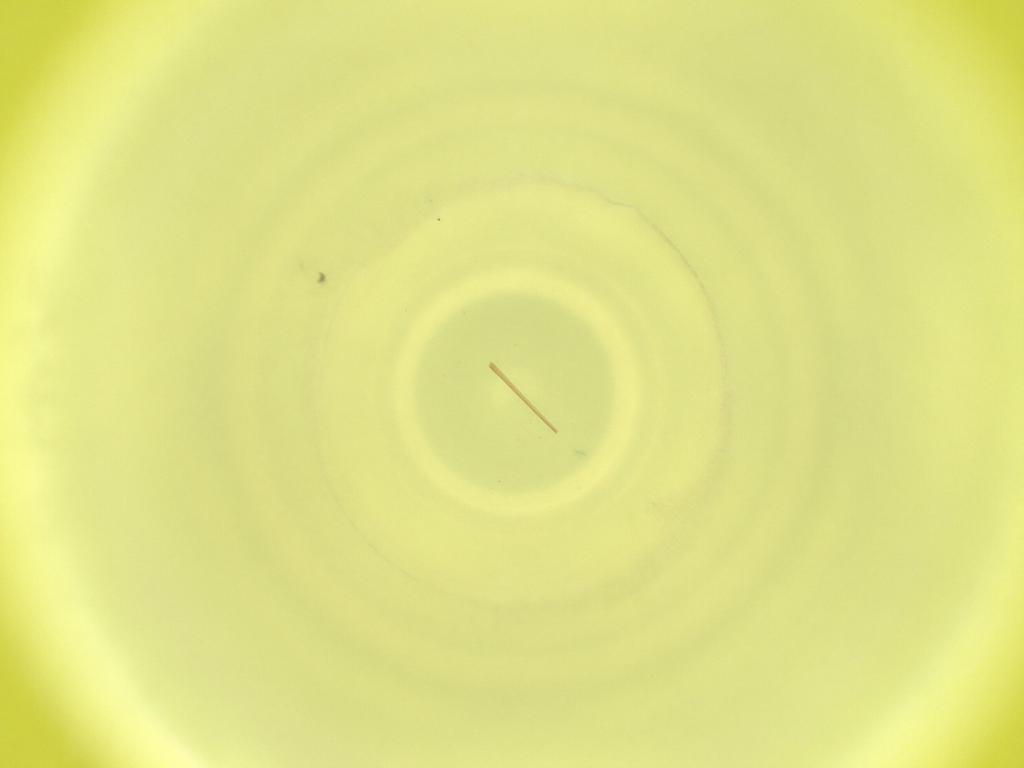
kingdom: Animalia
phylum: Arthropoda
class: Insecta
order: Diptera
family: Cecidomyiidae
